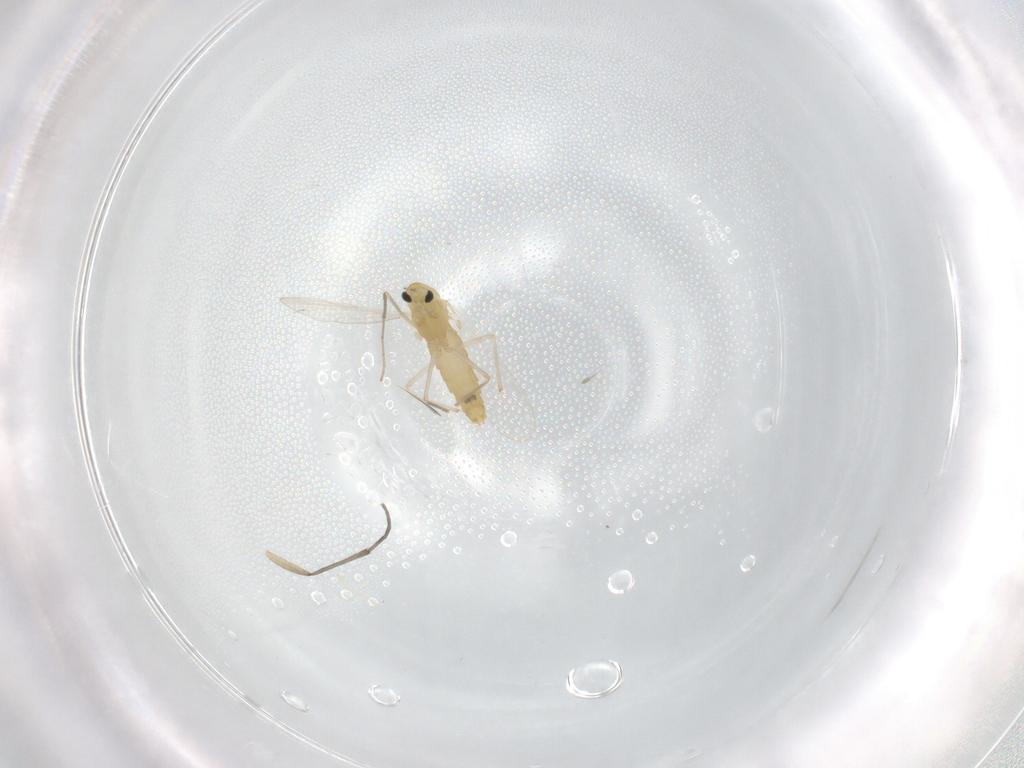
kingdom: Animalia
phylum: Arthropoda
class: Insecta
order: Diptera
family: Chironomidae
